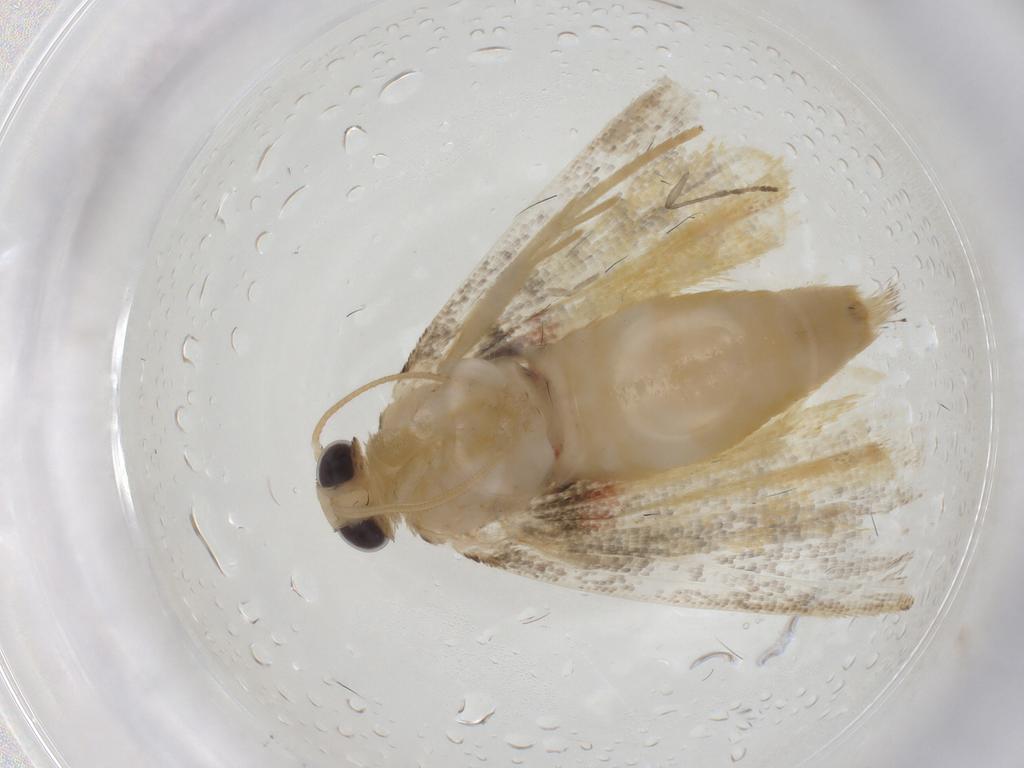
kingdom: Animalia
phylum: Arthropoda
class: Insecta
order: Lepidoptera
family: Erebidae
